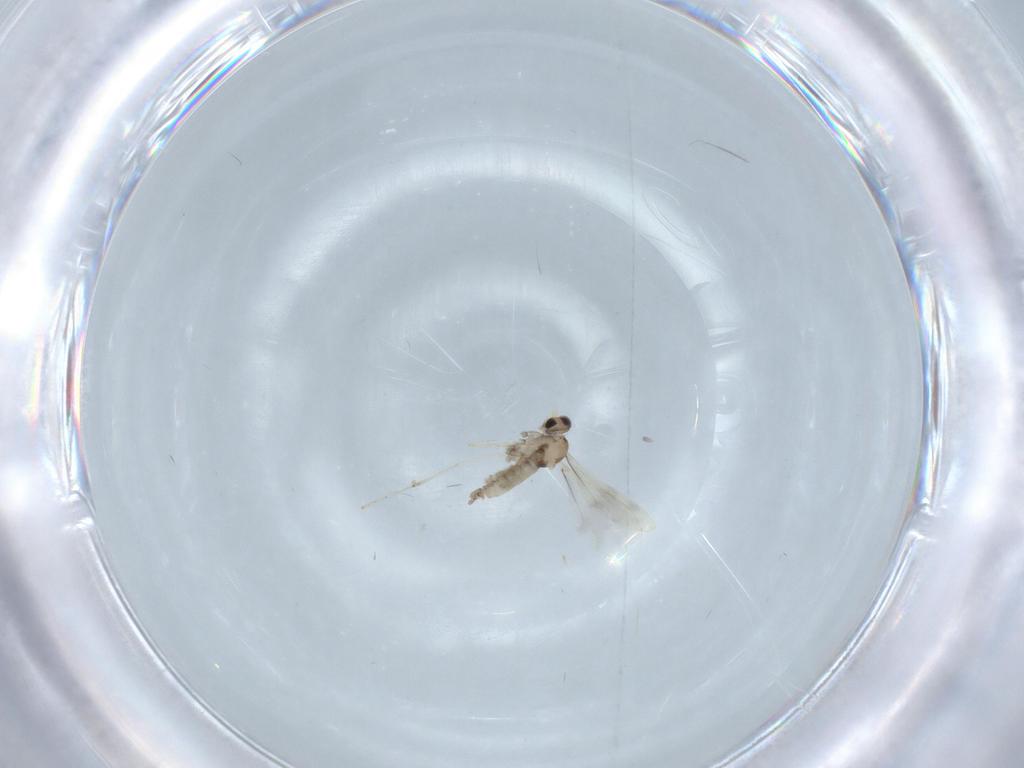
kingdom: Animalia
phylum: Arthropoda
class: Insecta
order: Diptera
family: Cecidomyiidae
